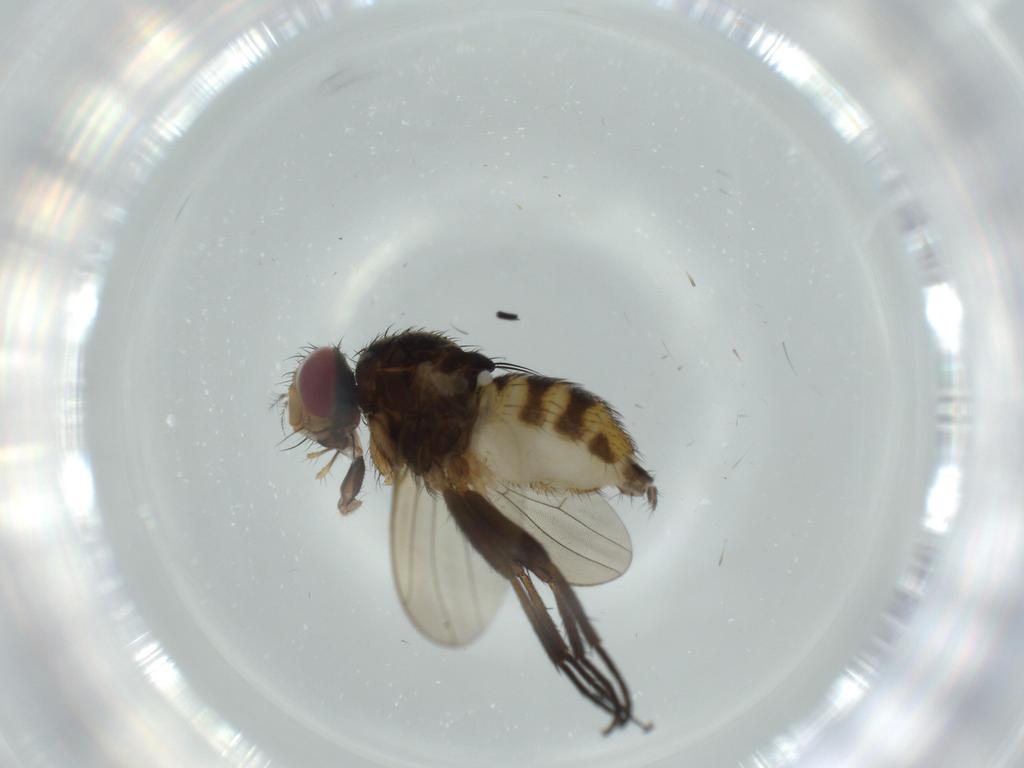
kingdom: Animalia
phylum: Arthropoda
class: Insecta
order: Diptera
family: Anthomyiidae
